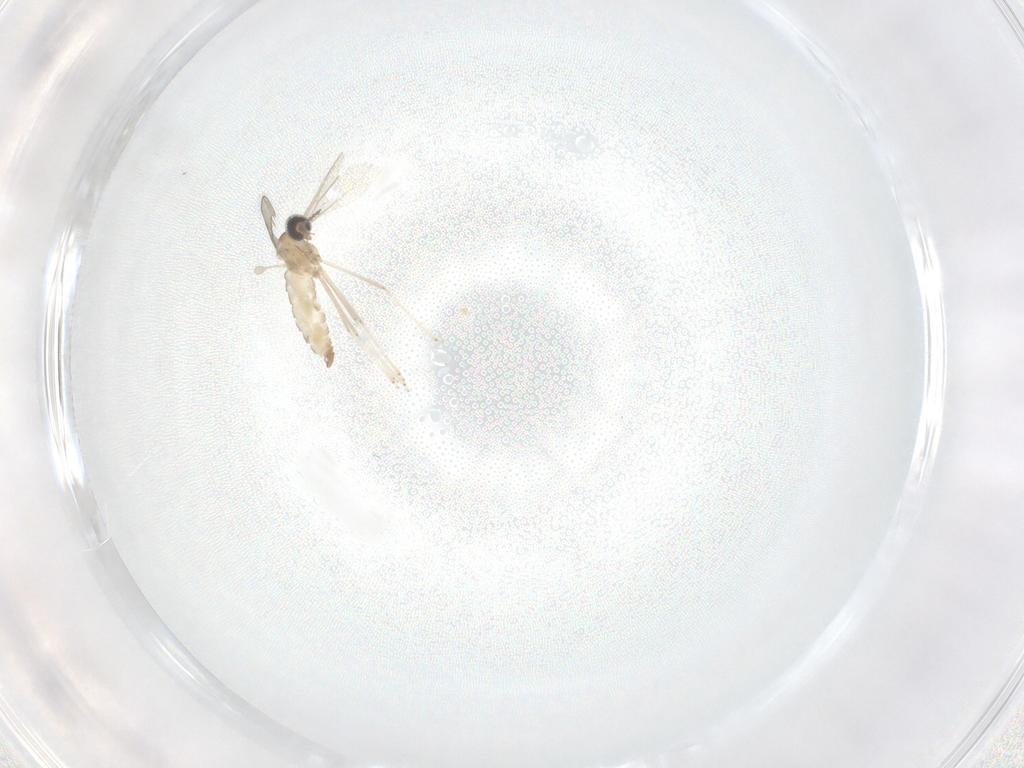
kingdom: Animalia
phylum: Arthropoda
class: Insecta
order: Diptera
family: Cecidomyiidae
